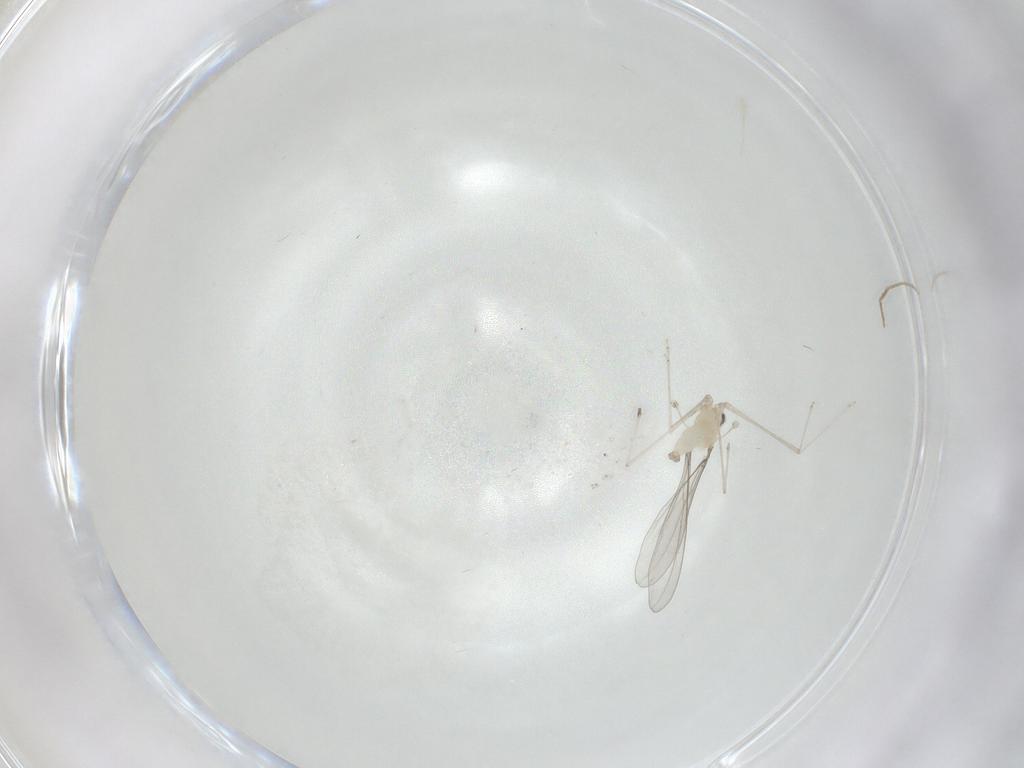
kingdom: Animalia
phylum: Arthropoda
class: Insecta
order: Diptera
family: Cecidomyiidae
